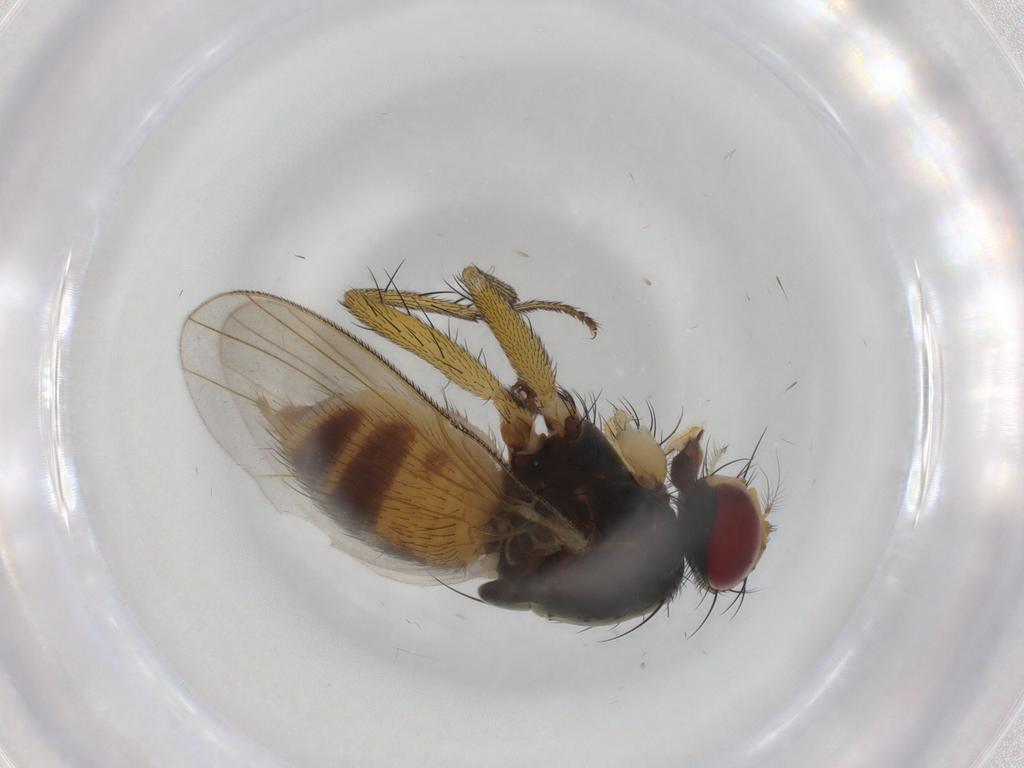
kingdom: Animalia
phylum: Arthropoda
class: Insecta
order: Diptera
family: Muscidae
